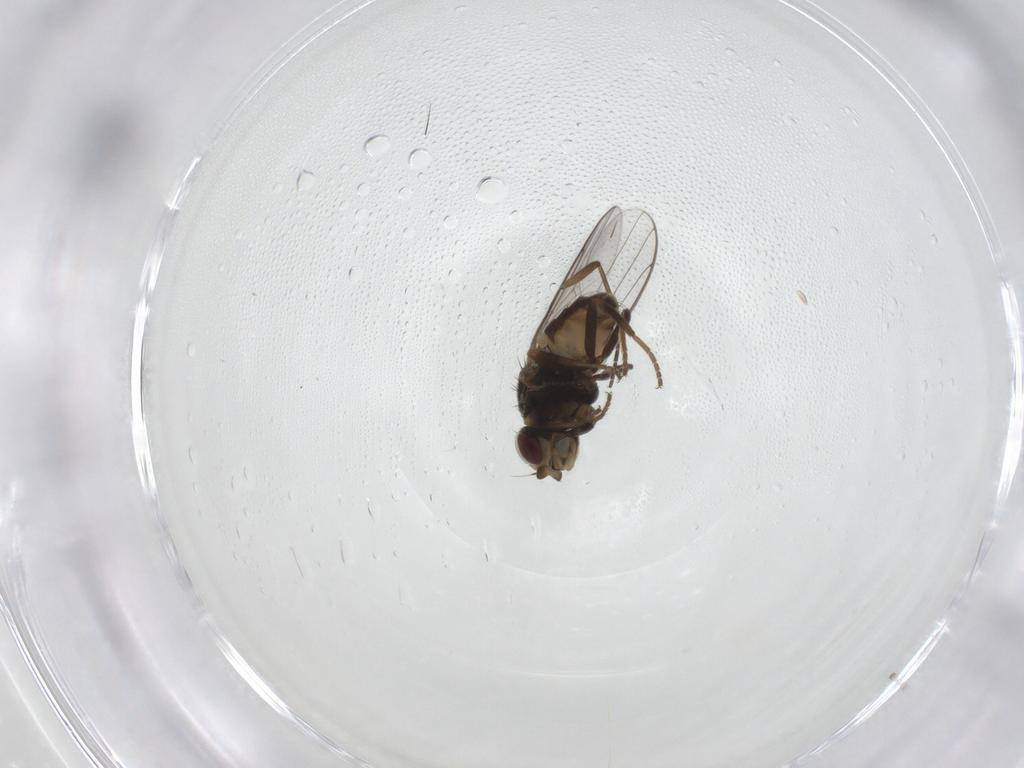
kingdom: Animalia
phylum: Arthropoda
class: Insecta
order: Diptera
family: Chloropidae
